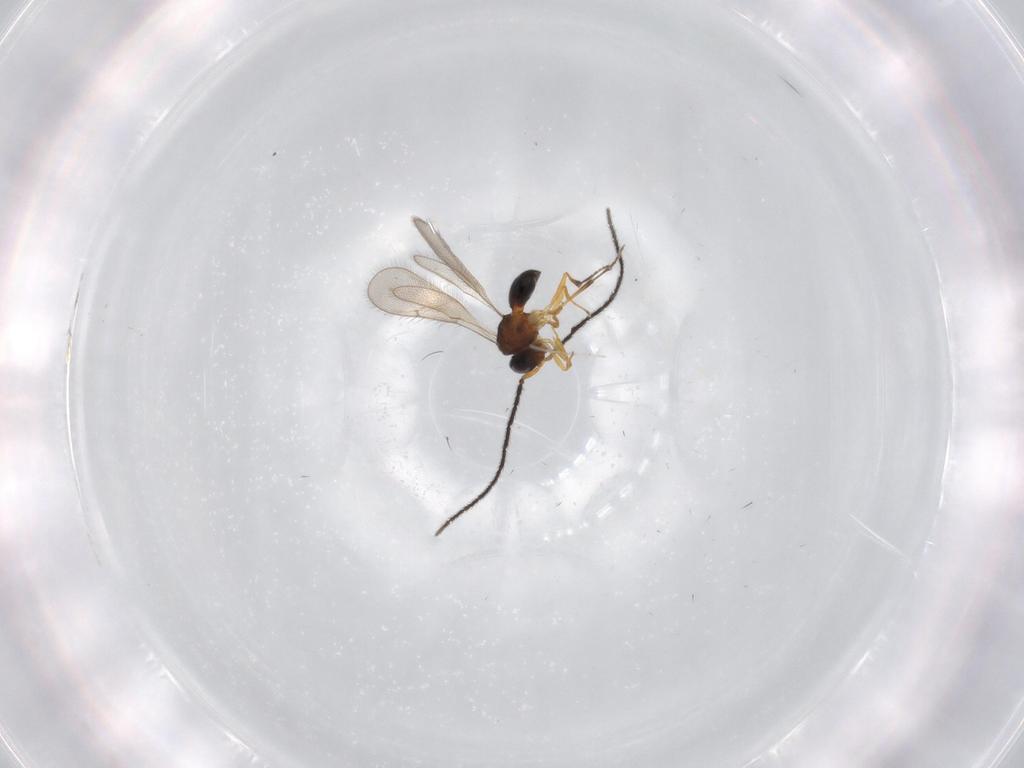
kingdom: Animalia
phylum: Arthropoda
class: Insecta
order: Hymenoptera
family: Scelionidae
